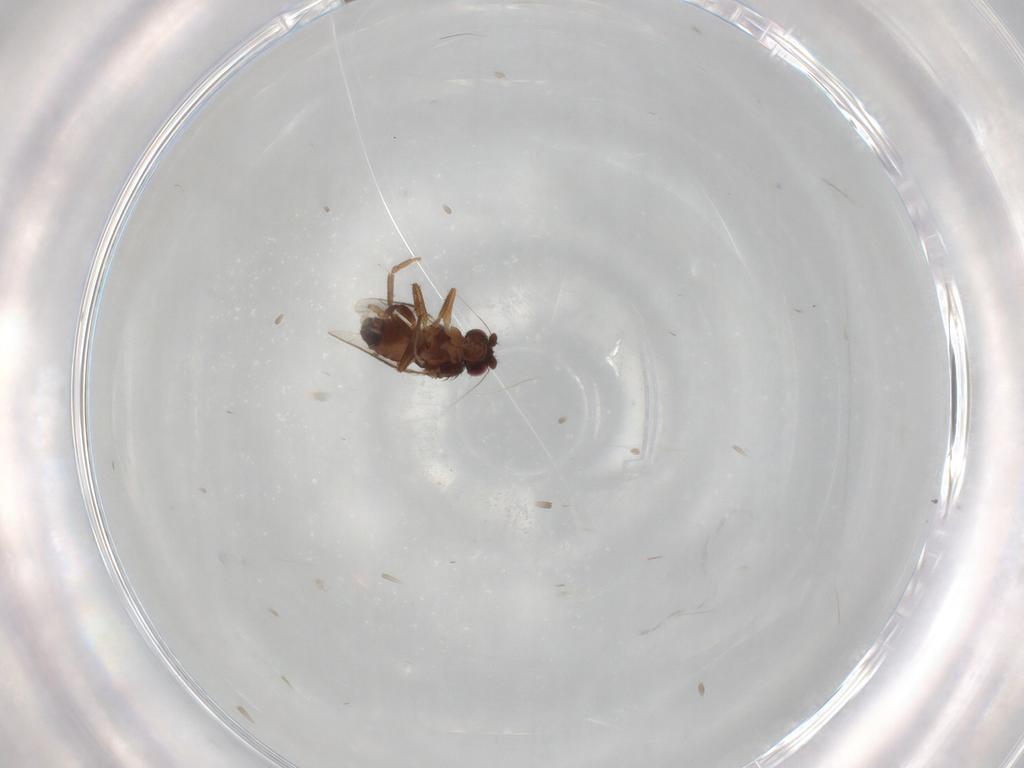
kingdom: Animalia
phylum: Arthropoda
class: Insecta
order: Diptera
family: Sphaeroceridae
